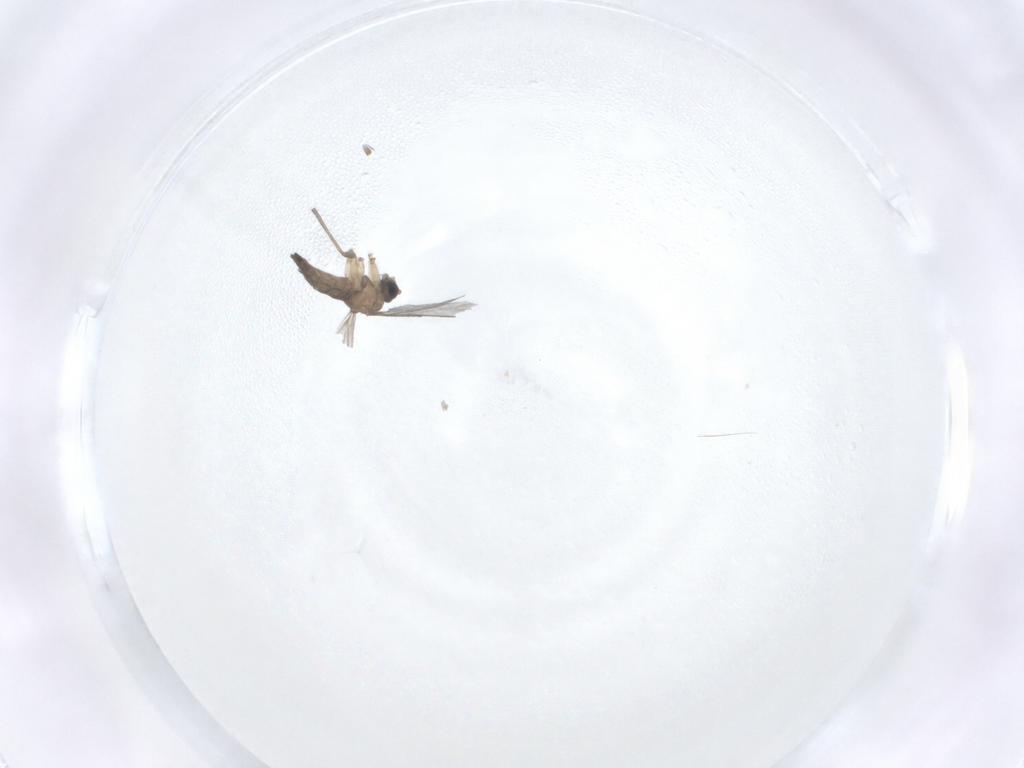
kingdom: Animalia
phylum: Arthropoda
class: Insecta
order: Diptera
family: Sciaridae
